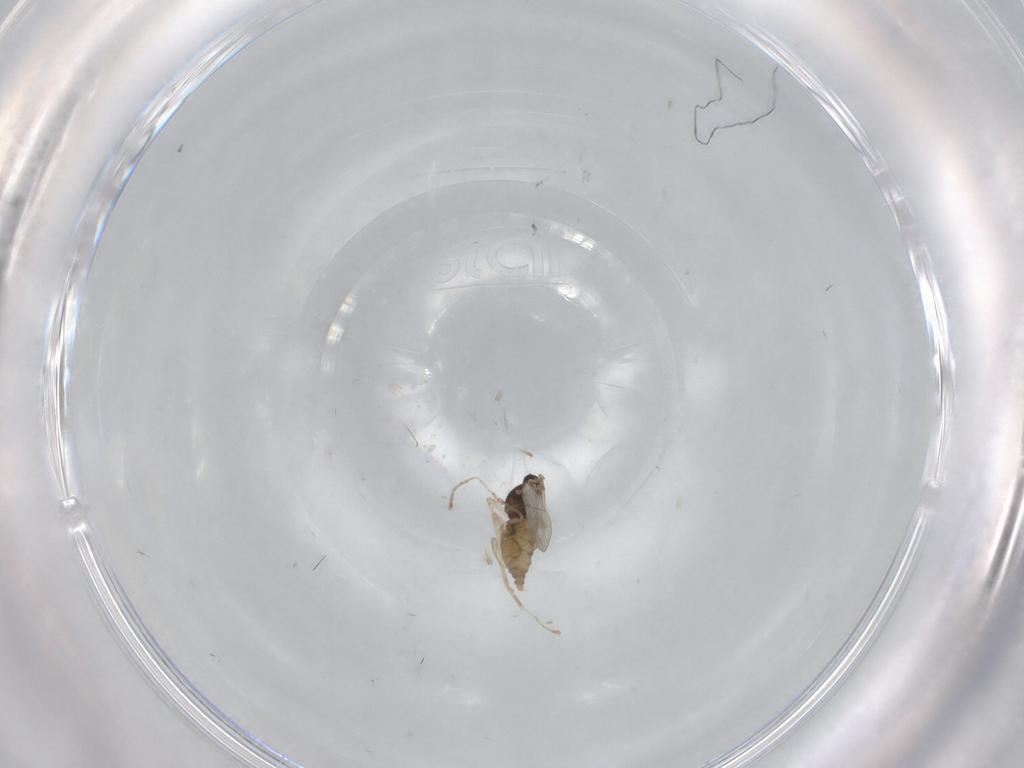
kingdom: Animalia
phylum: Arthropoda
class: Insecta
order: Diptera
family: Cecidomyiidae
